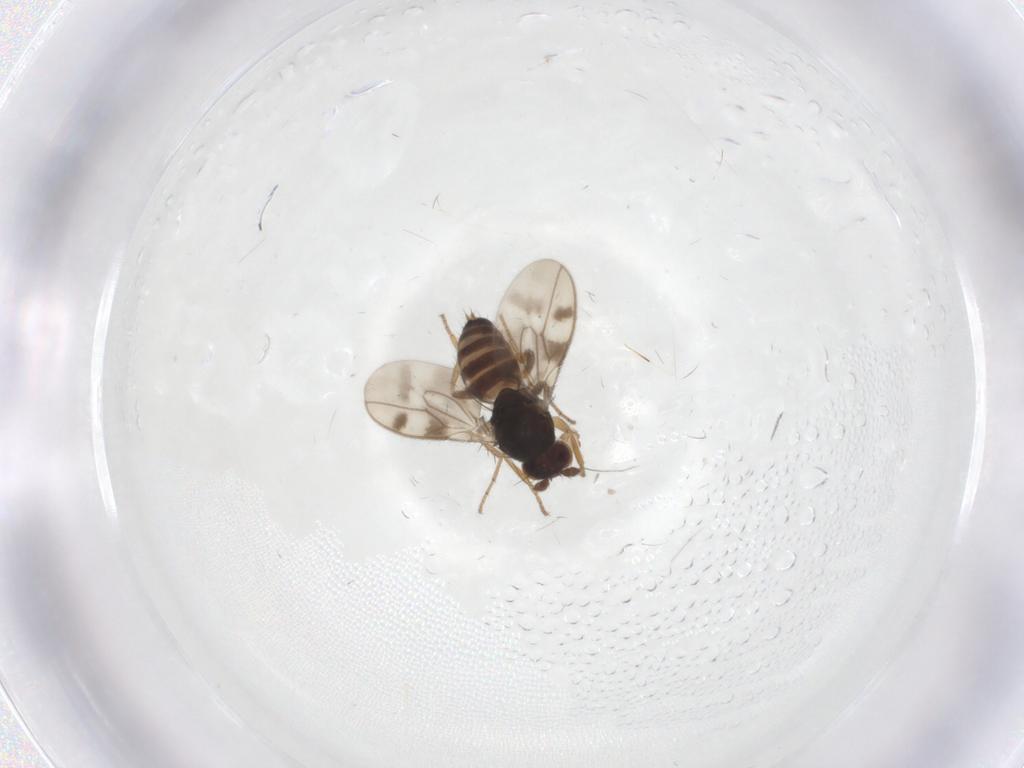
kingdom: Animalia
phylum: Arthropoda
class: Insecta
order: Diptera
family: Sphaeroceridae
